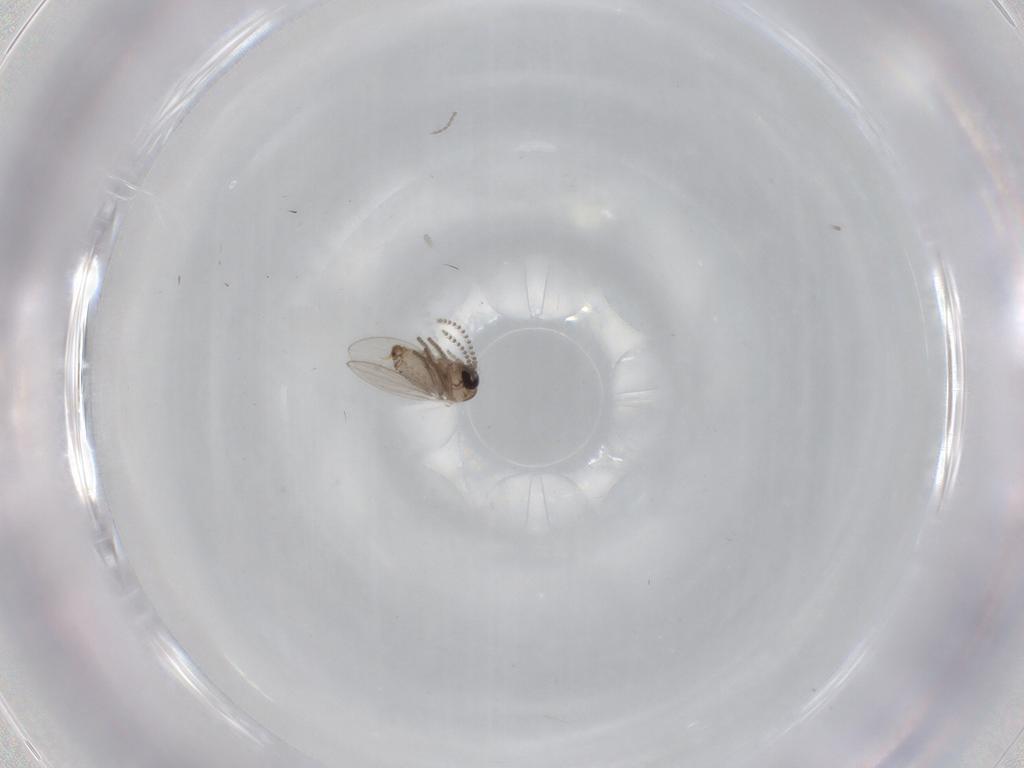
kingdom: Animalia
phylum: Arthropoda
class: Insecta
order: Diptera
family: Psychodidae
